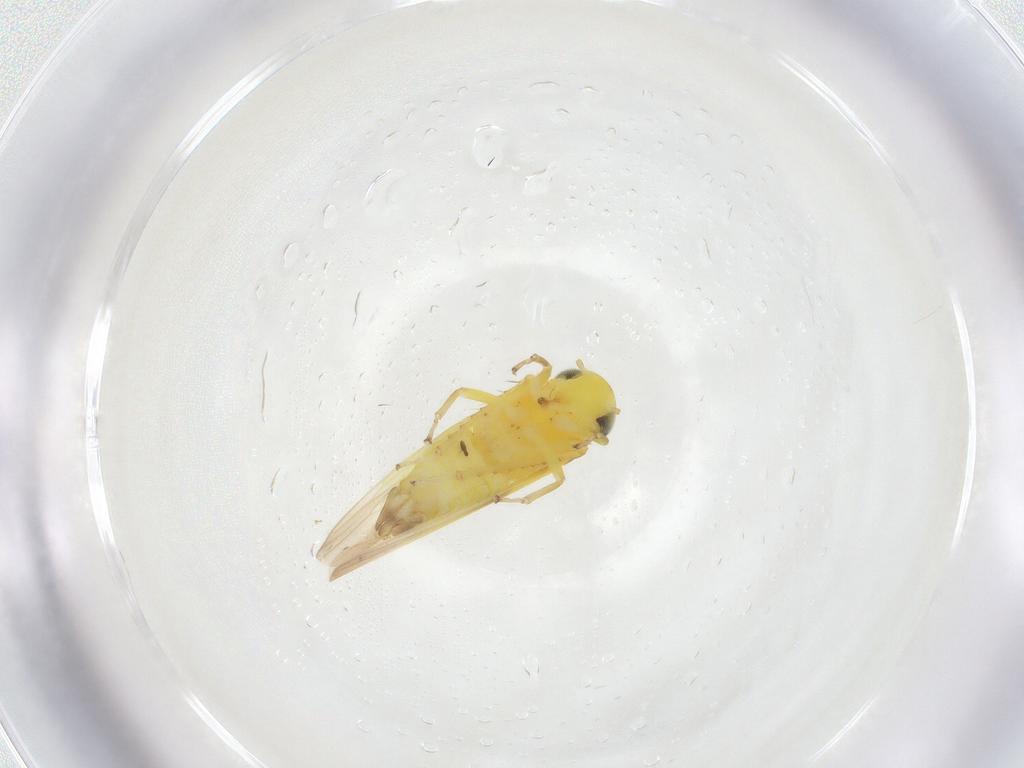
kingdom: Animalia
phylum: Arthropoda
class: Insecta
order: Hemiptera
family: Cicadellidae
